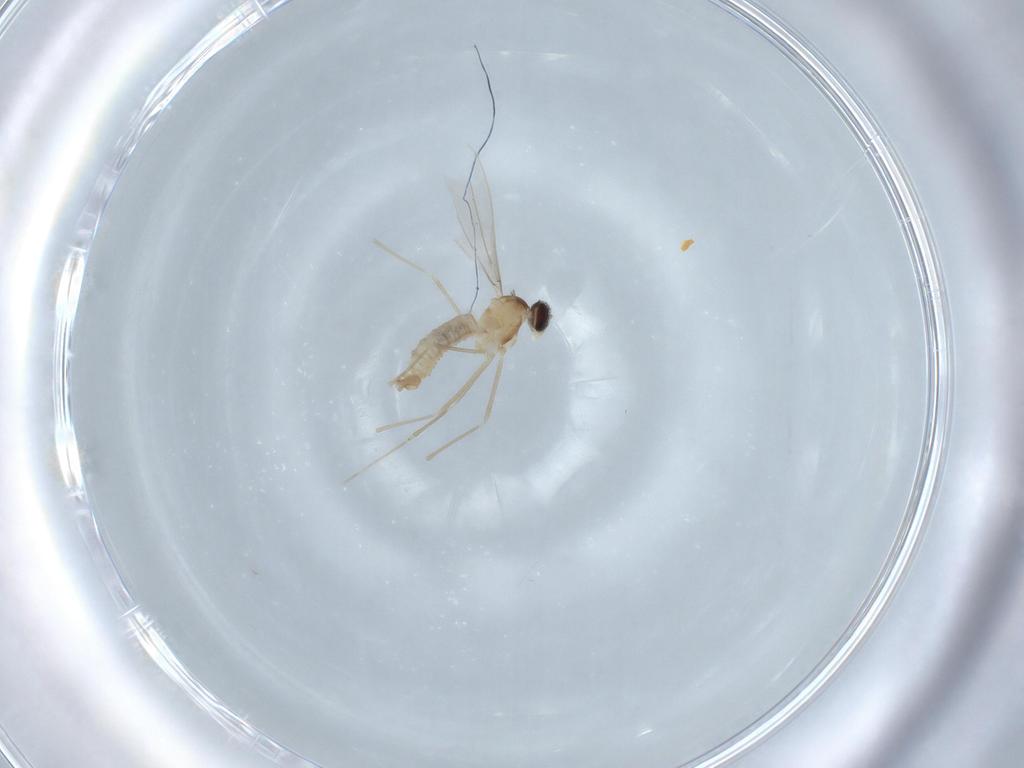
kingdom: Animalia
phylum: Arthropoda
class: Insecta
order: Diptera
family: Cecidomyiidae
